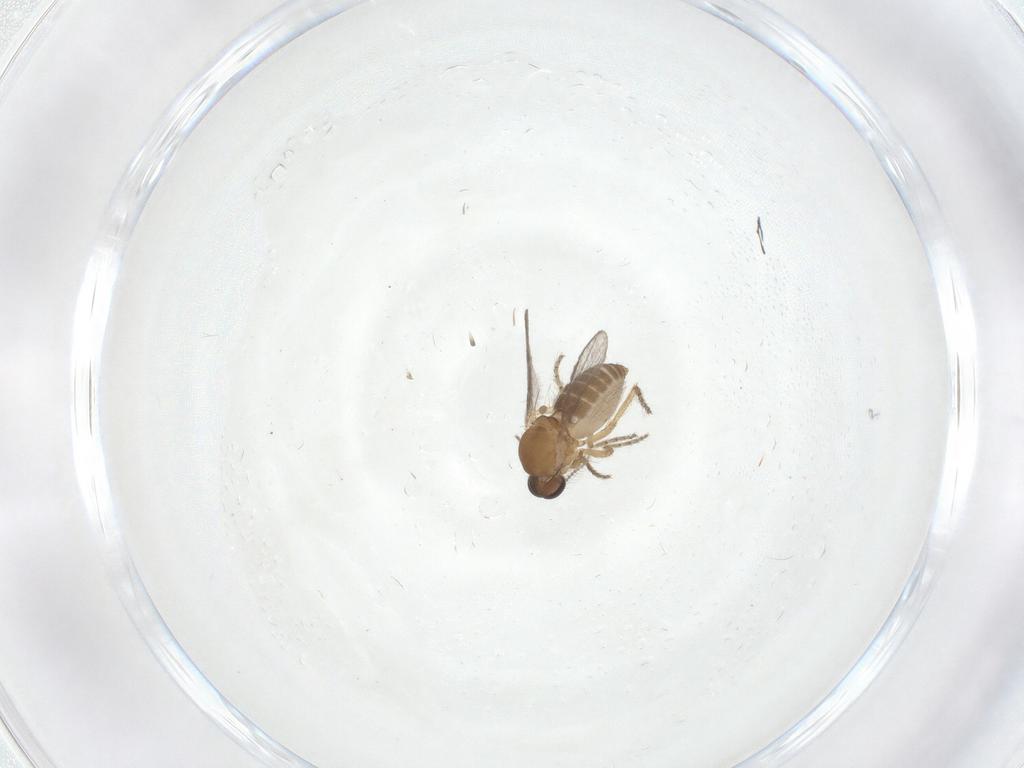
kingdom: Animalia
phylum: Arthropoda
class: Insecta
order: Diptera
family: Ceratopogonidae
